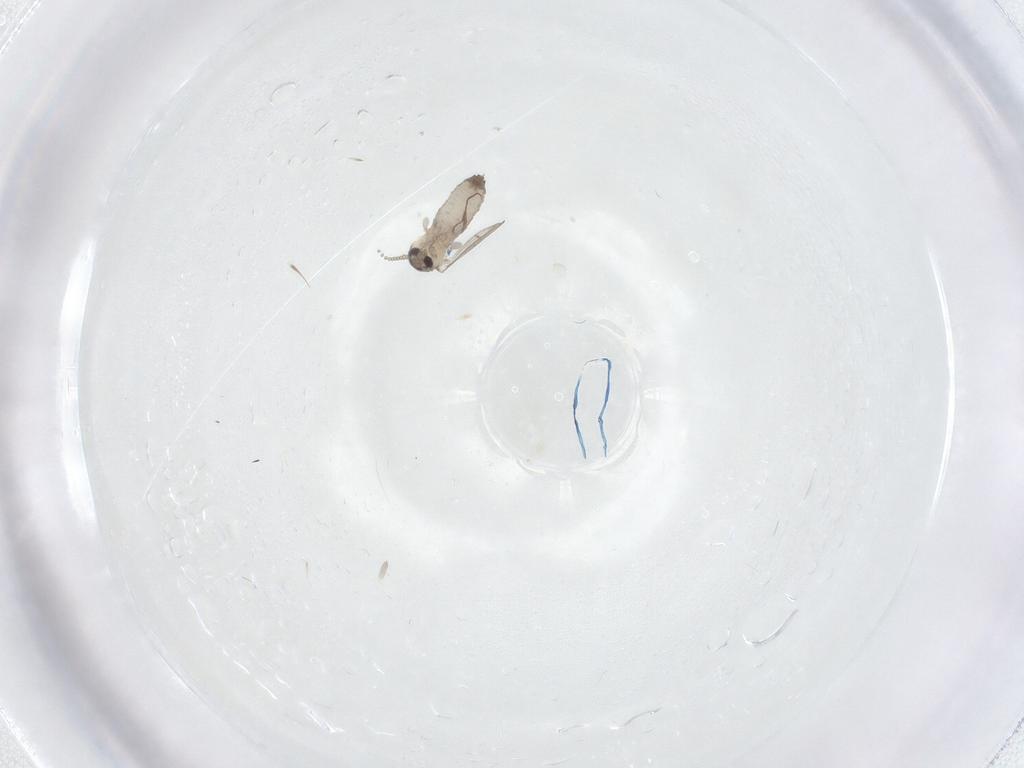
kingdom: Animalia
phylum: Arthropoda
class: Insecta
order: Diptera
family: Psychodidae
